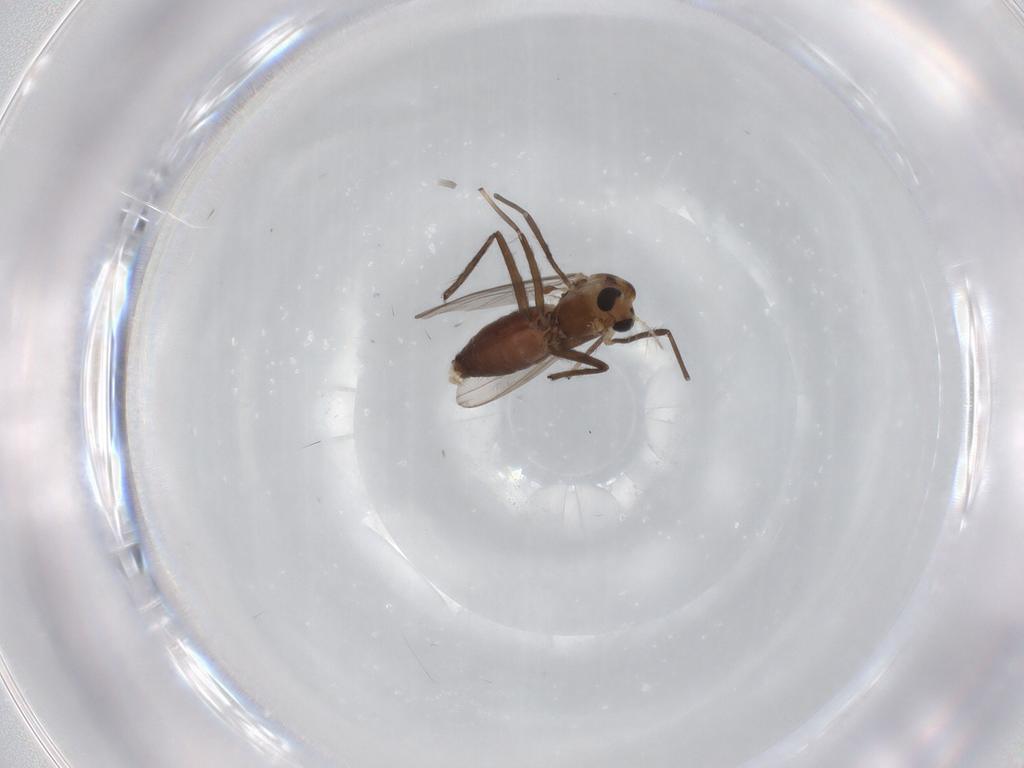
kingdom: Animalia
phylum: Arthropoda
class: Insecta
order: Diptera
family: Chironomidae
